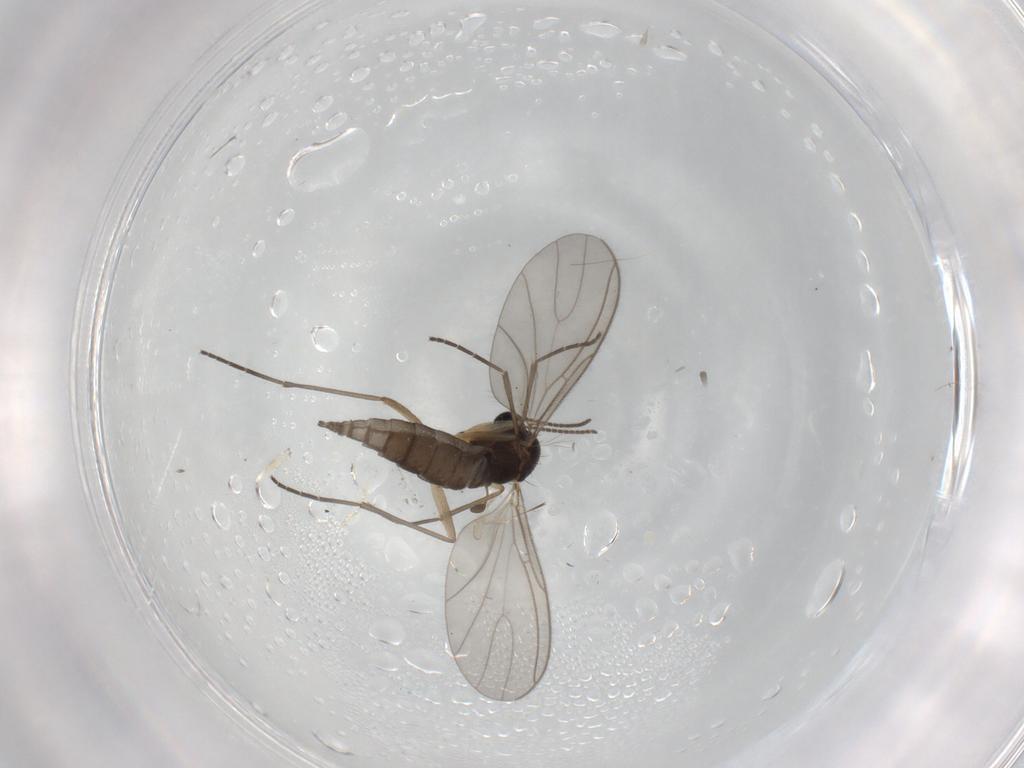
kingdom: Animalia
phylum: Arthropoda
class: Insecta
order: Diptera
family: Sciaridae
